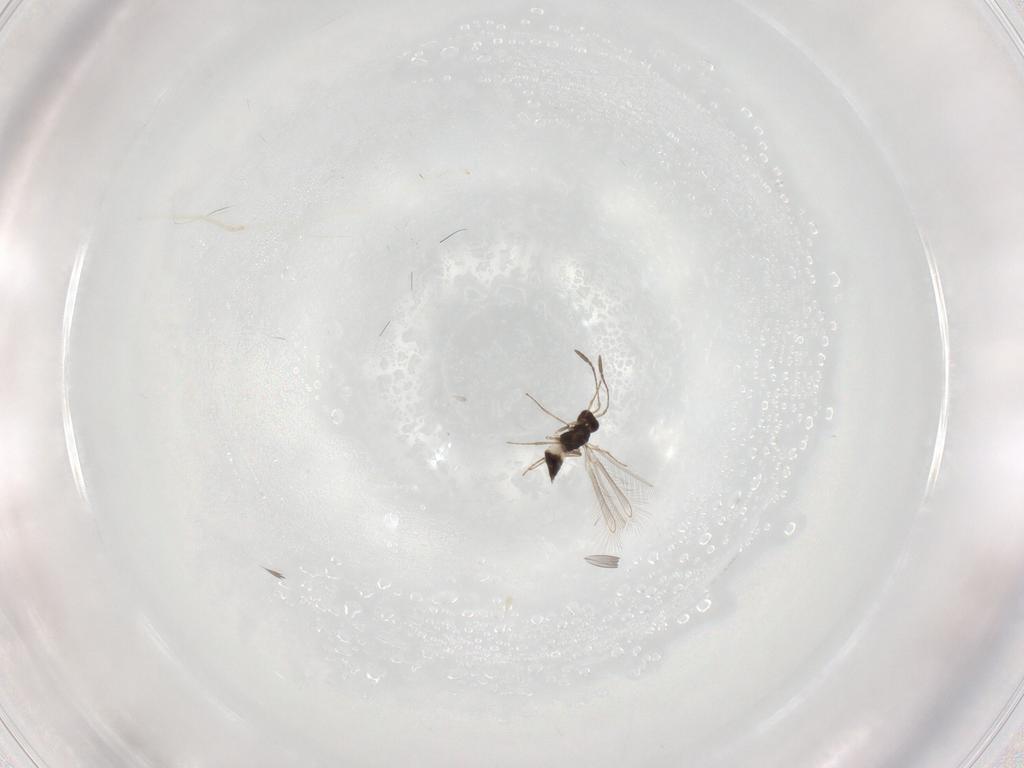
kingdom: Animalia
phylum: Arthropoda
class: Insecta
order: Hymenoptera
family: Mymaridae
